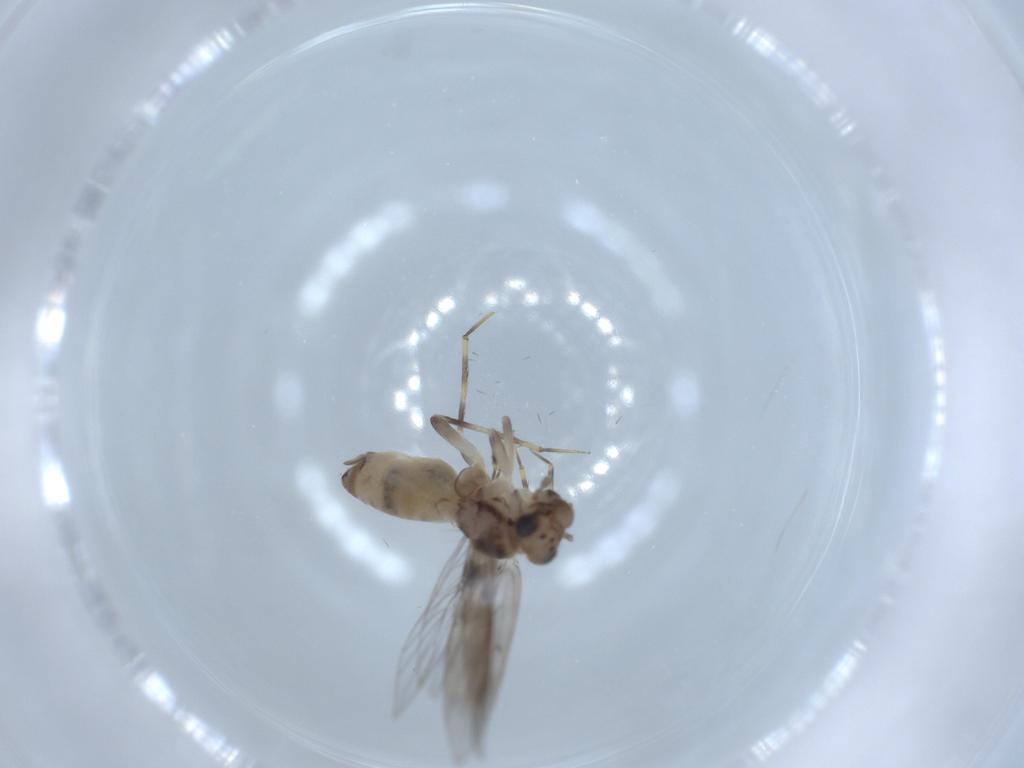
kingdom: Animalia
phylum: Arthropoda
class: Insecta
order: Psocodea
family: Lepidopsocidae
